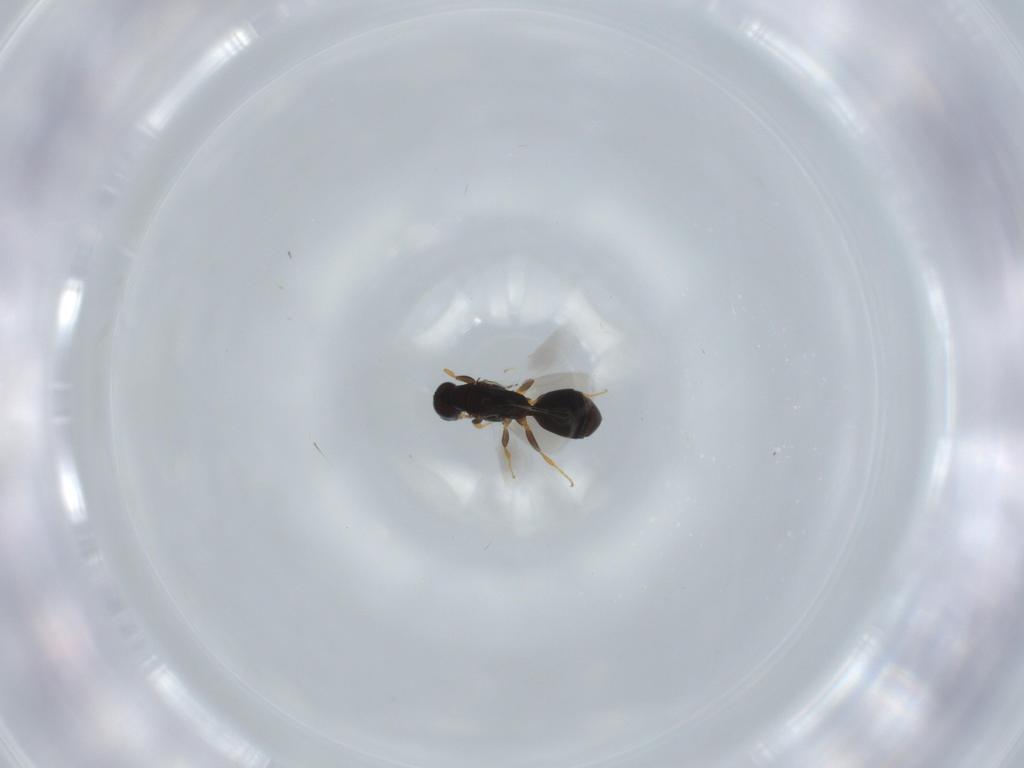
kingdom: Animalia
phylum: Arthropoda
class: Insecta
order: Hymenoptera
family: Bethylidae
